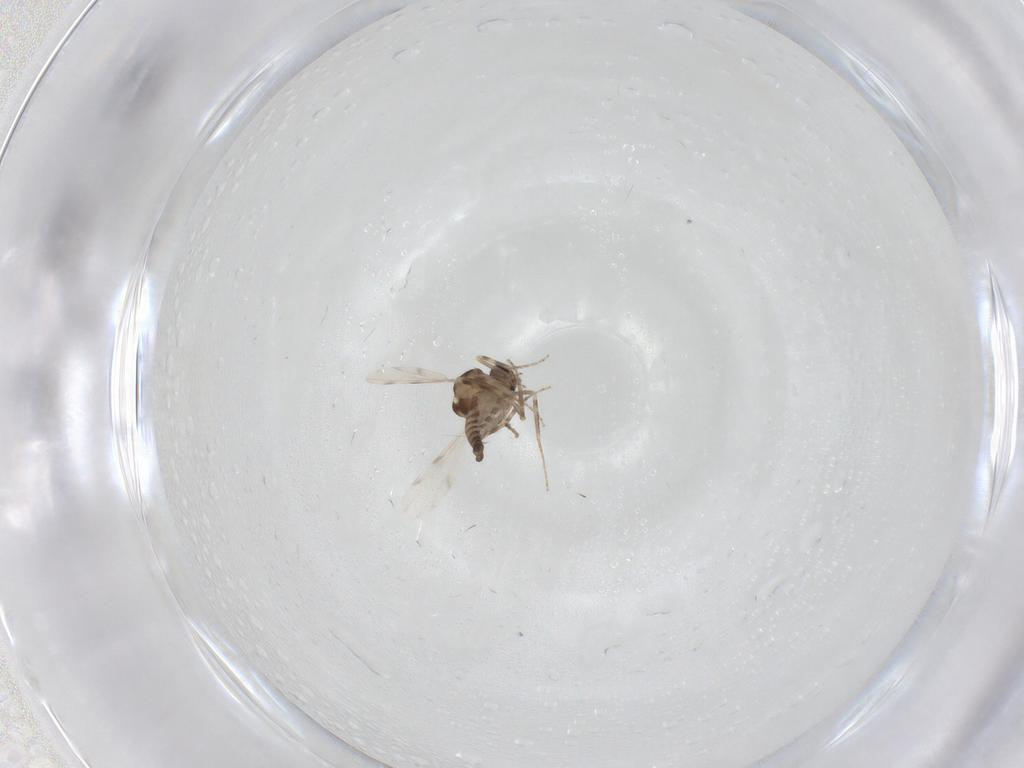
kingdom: Animalia
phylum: Arthropoda
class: Insecta
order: Diptera
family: Ceratopogonidae
